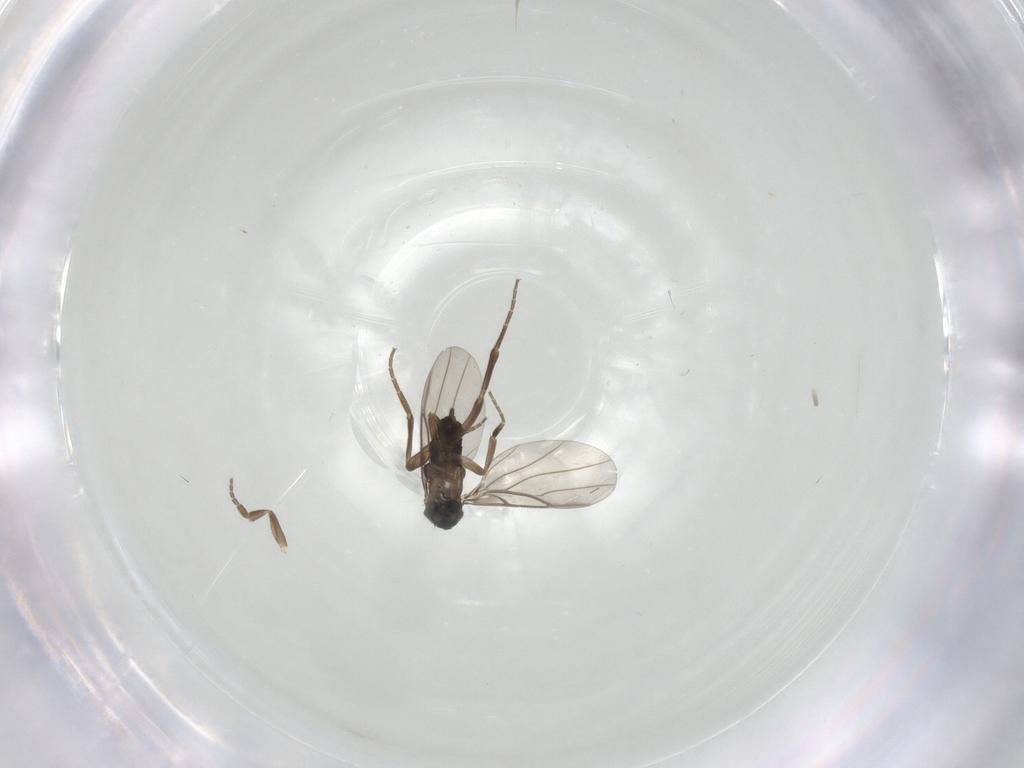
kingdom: Animalia
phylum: Arthropoda
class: Insecta
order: Diptera
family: Phoridae
